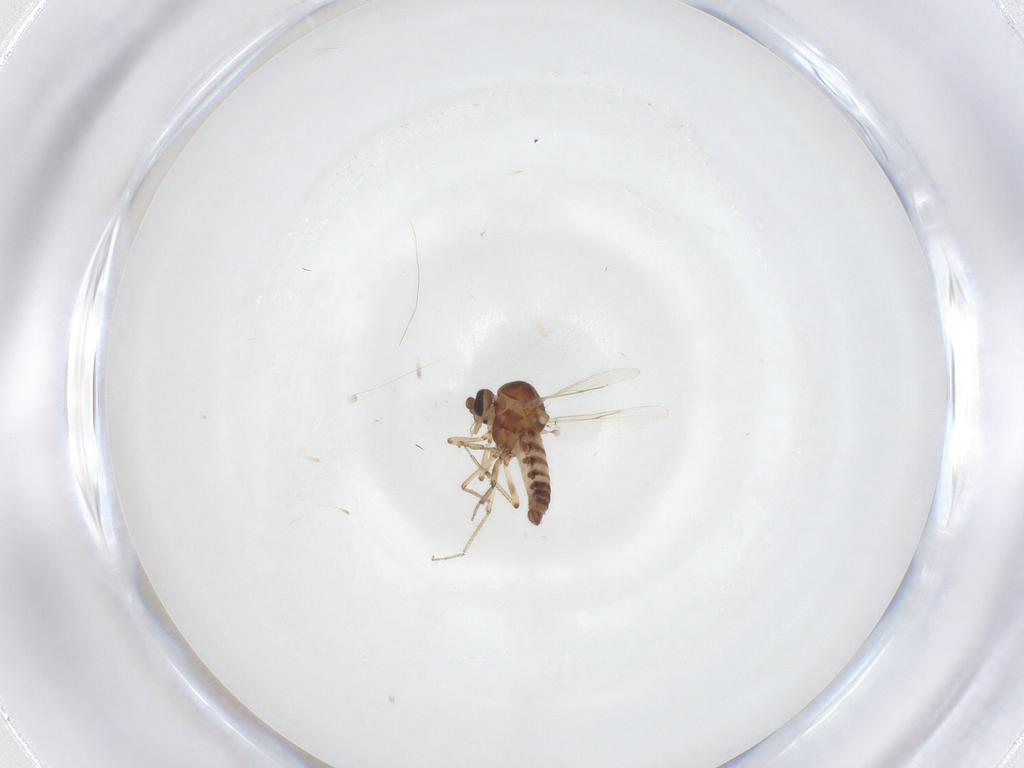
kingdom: Animalia
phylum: Arthropoda
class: Insecta
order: Diptera
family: Ceratopogonidae
